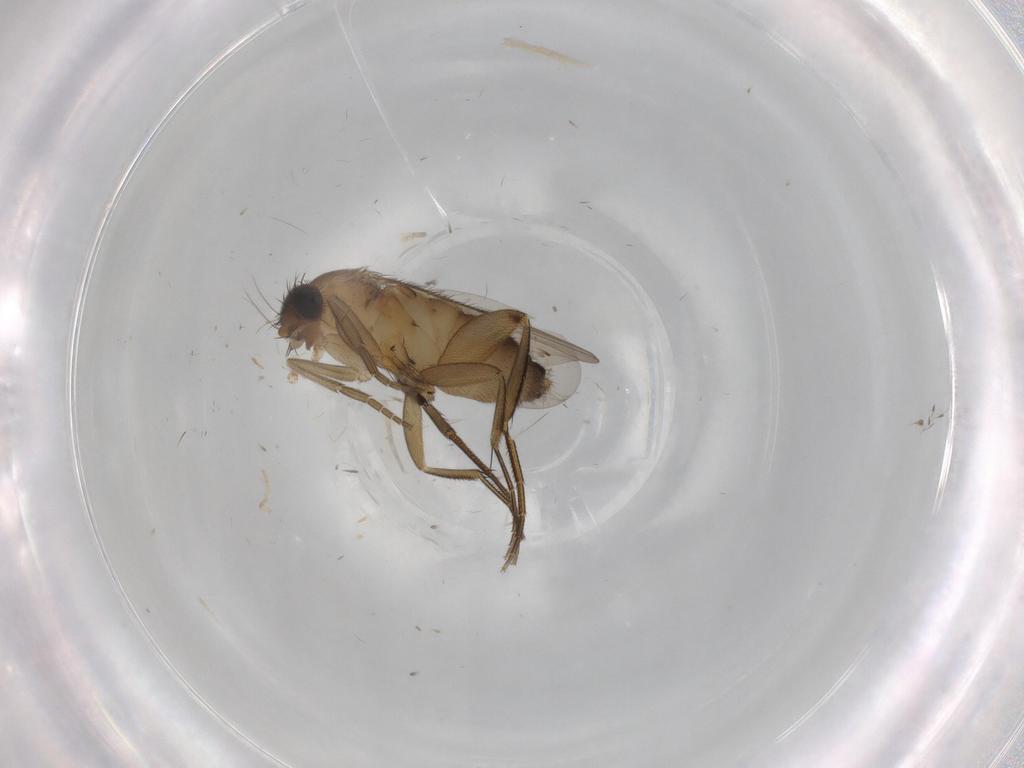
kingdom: Animalia
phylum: Arthropoda
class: Insecta
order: Diptera
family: Phoridae
